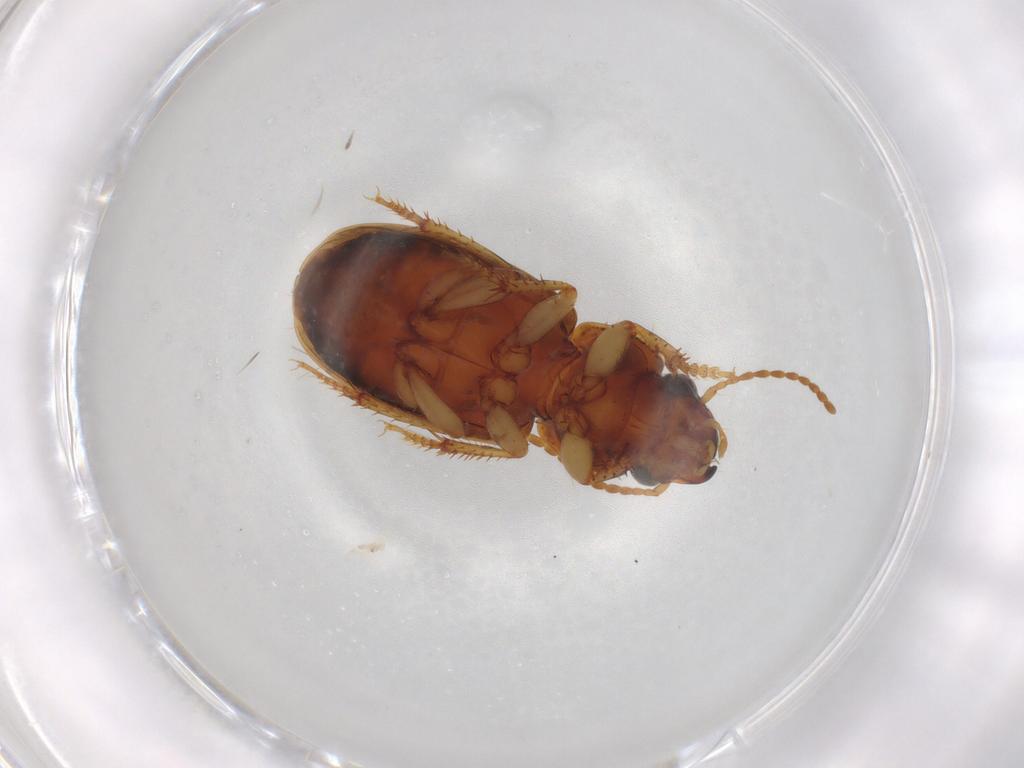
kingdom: Animalia
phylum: Arthropoda
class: Insecta
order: Coleoptera
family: Carabidae
